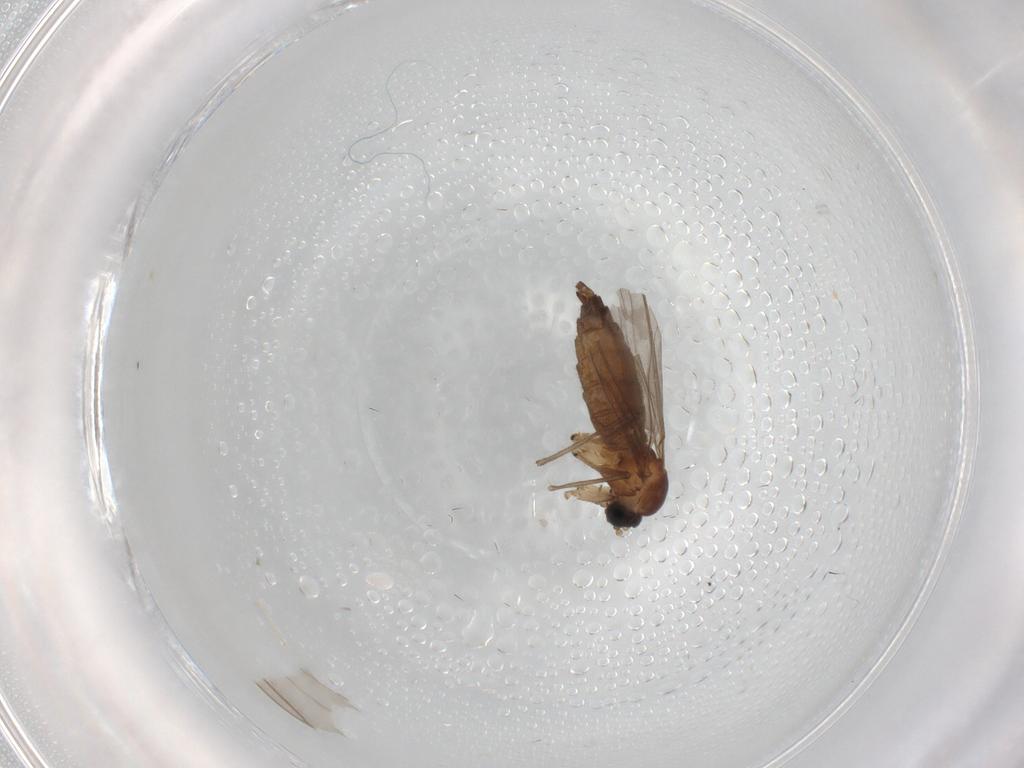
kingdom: Animalia
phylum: Arthropoda
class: Insecta
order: Diptera
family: Sciaridae
